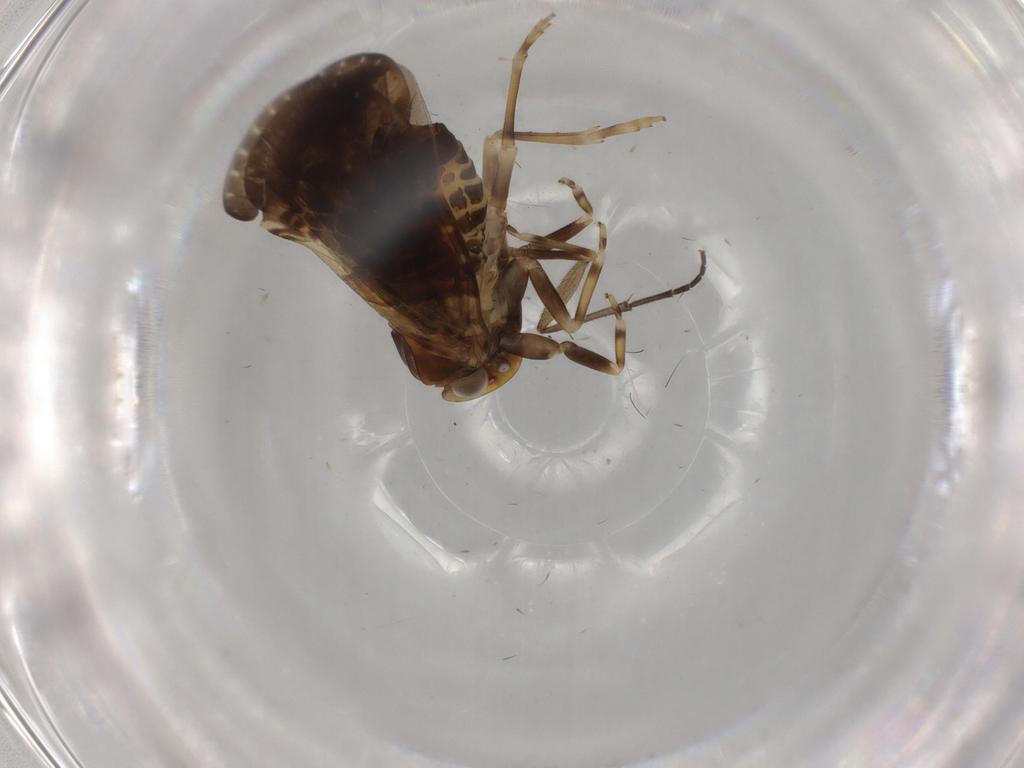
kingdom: Animalia
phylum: Arthropoda
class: Insecta
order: Hemiptera
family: Cixiidae
